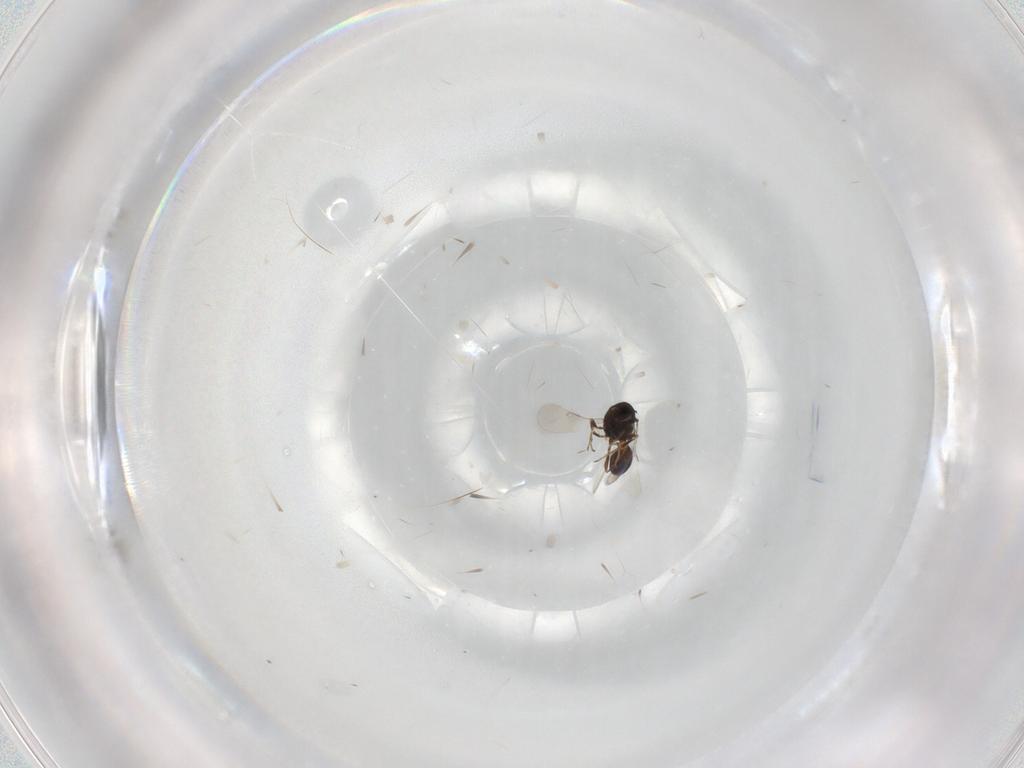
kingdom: Animalia
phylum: Arthropoda
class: Insecta
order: Hymenoptera
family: Scelionidae
